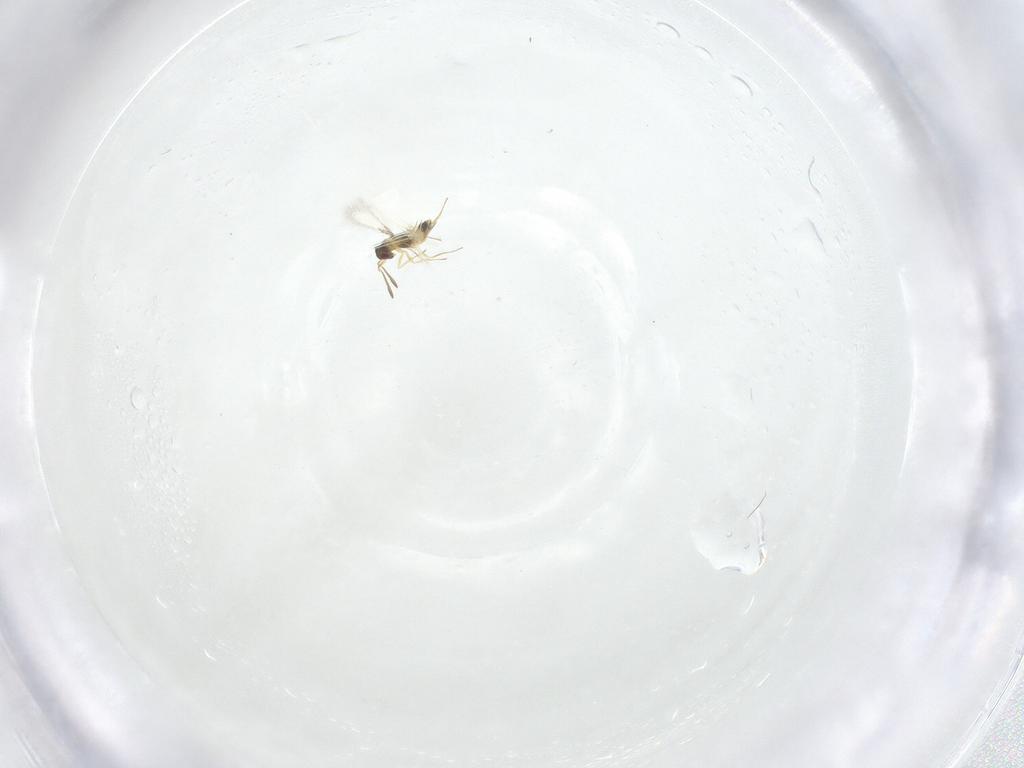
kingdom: Animalia
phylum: Arthropoda
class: Insecta
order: Hymenoptera
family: Mymaridae
